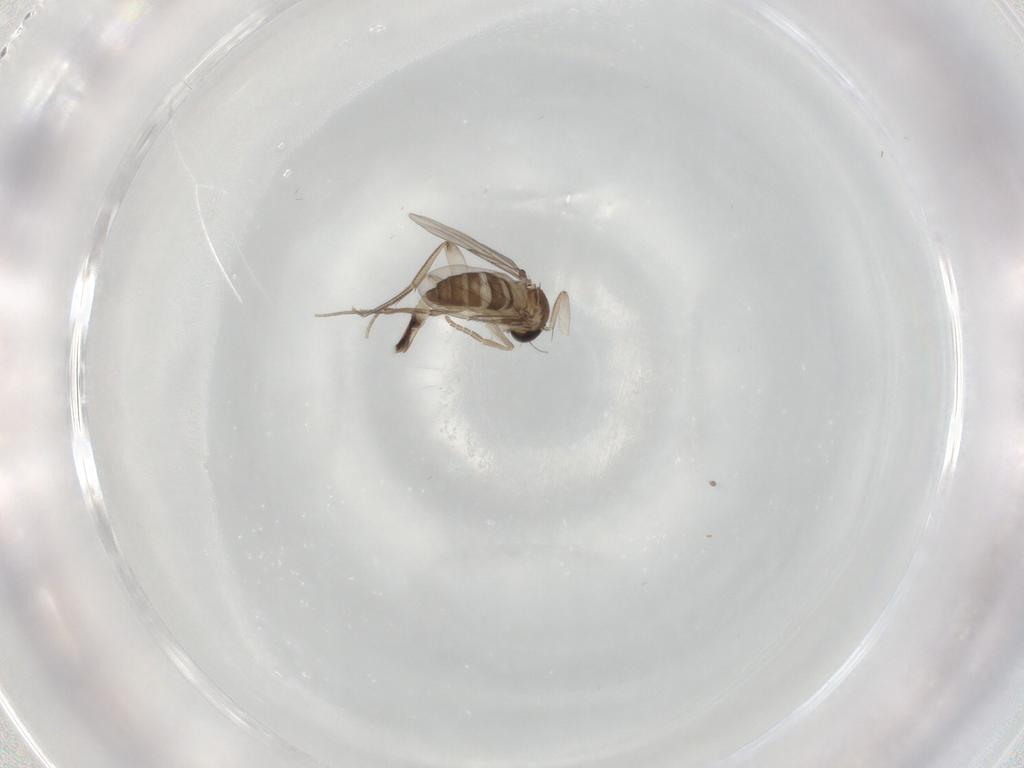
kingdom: Animalia
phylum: Arthropoda
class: Insecta
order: Diptera
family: Phoridae
